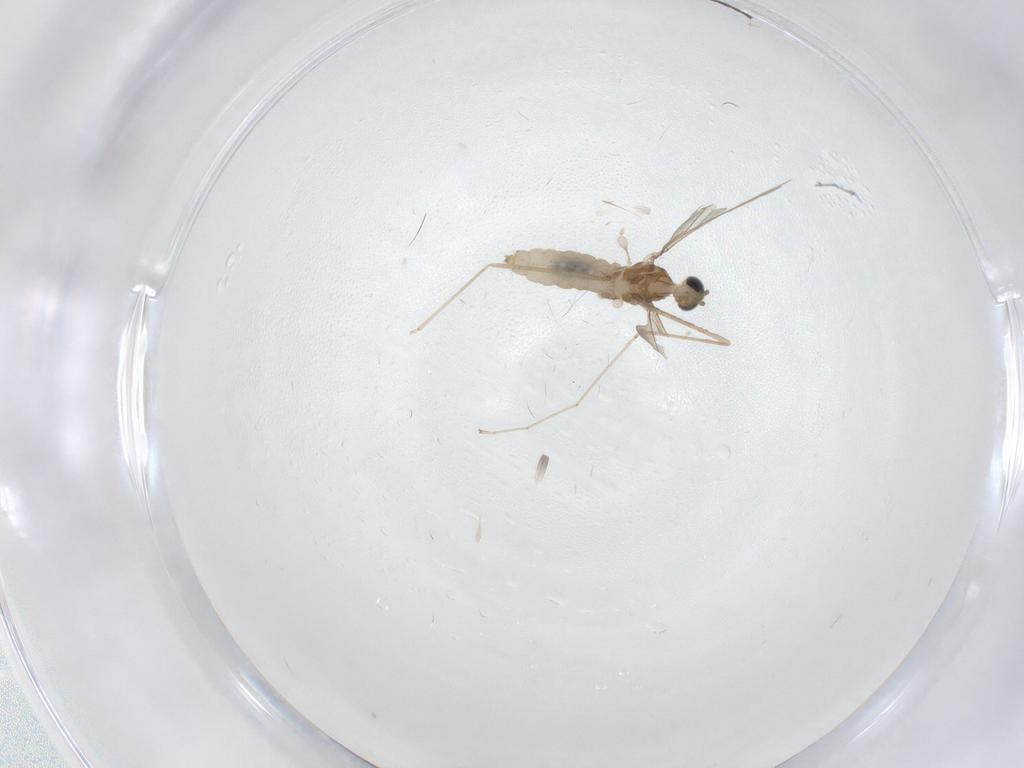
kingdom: Animalia
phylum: Arthropoda
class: Insecta
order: Diptera
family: Cecidomyiidae
